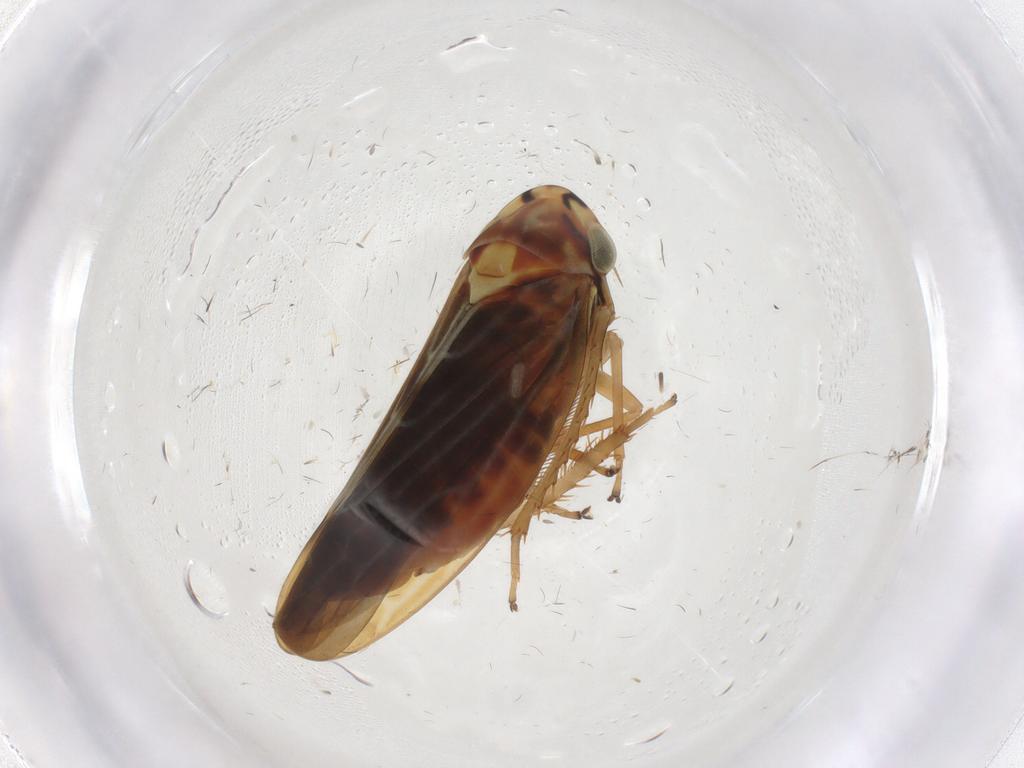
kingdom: Animalia
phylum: Arthropoda
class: Insecta
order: Hemiptera
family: Cicadellidae
